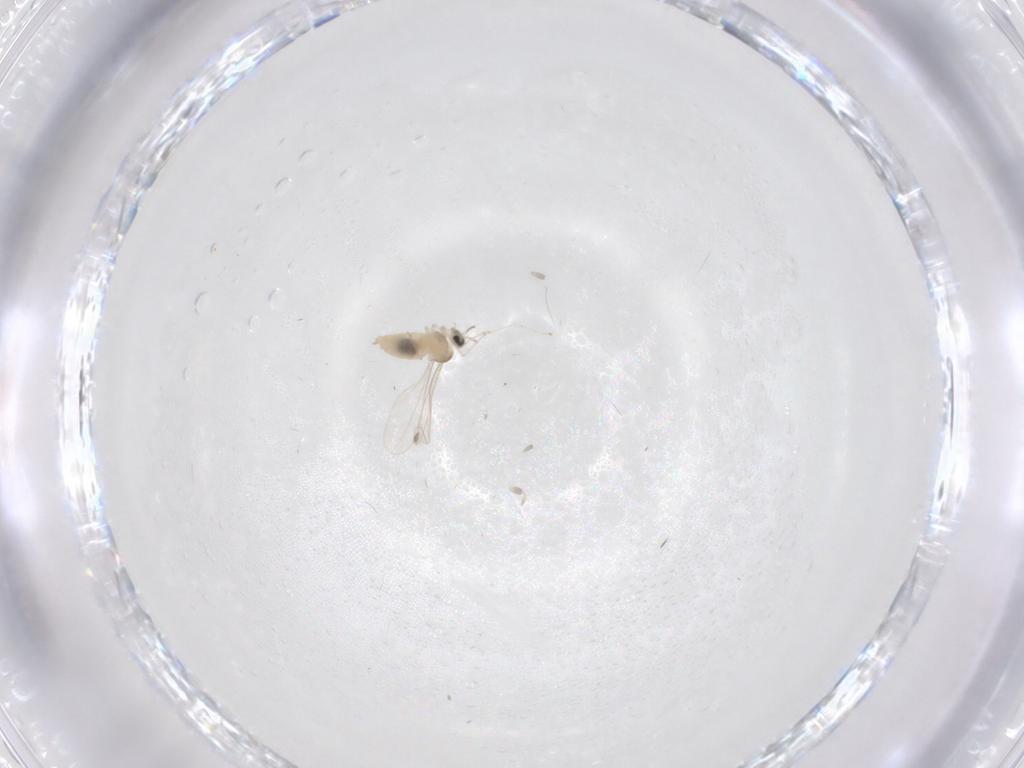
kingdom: Animalia
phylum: Arthropoda
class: Insecta
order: Diptera
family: Cecidomyiidae
